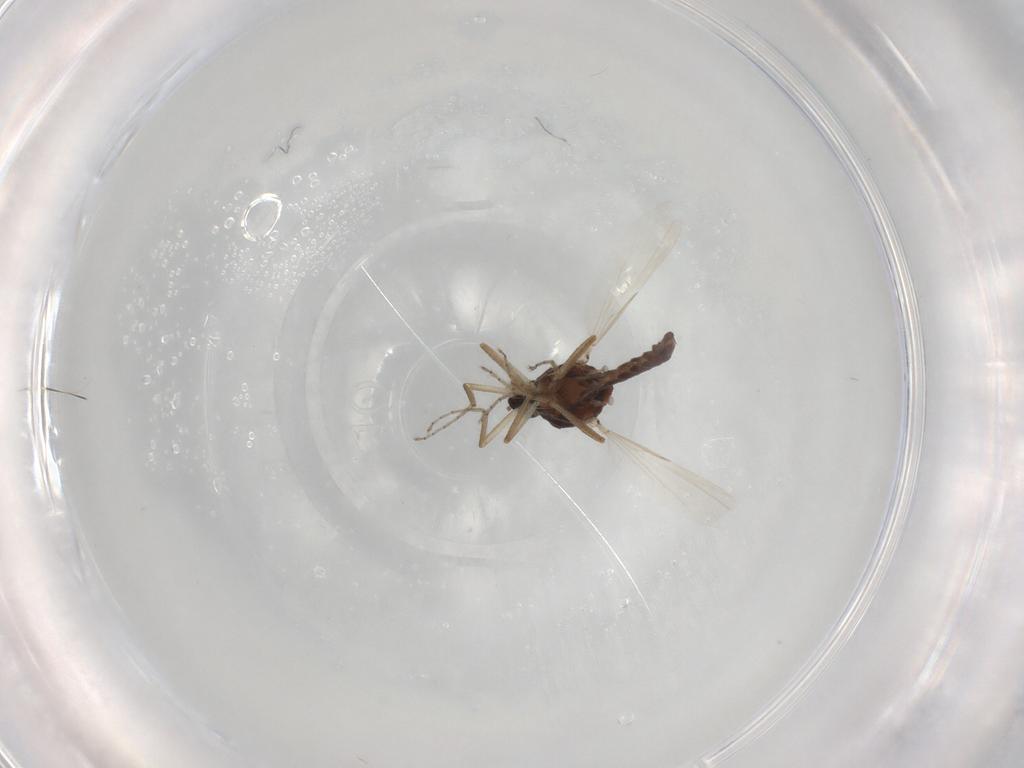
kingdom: Animalia
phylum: Arthropoda
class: Insecta
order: Diptera
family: Ceratopogonidae
